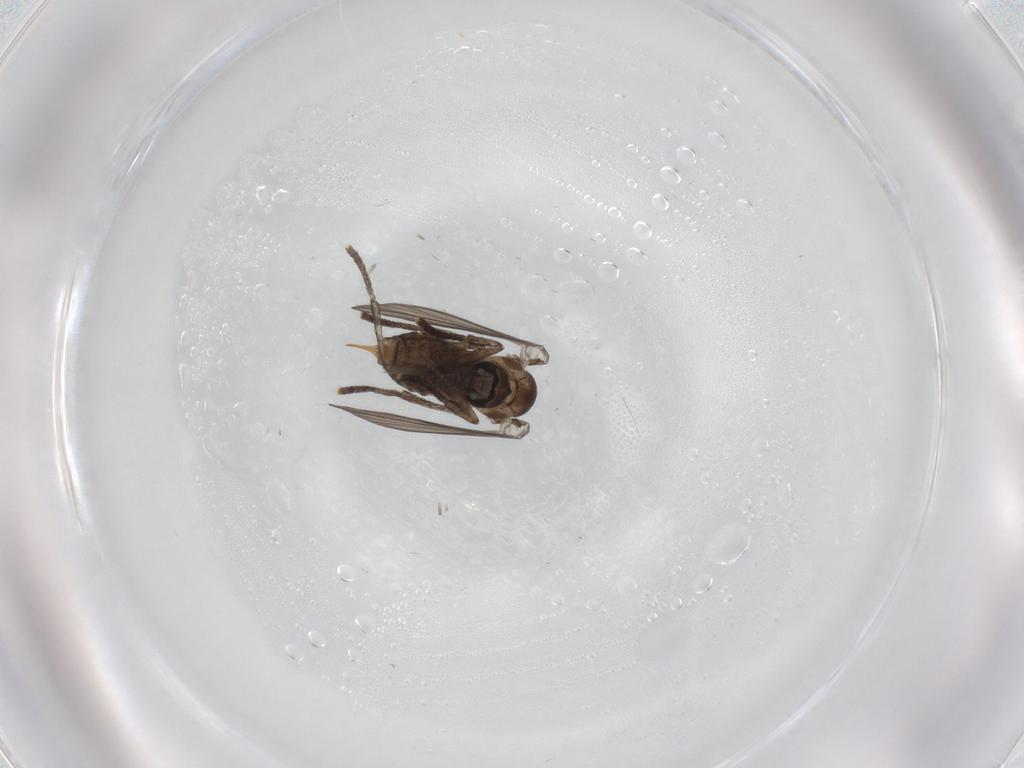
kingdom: Animalia
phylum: Arthropoda
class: Insecta
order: Diptera
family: Psychodidae
